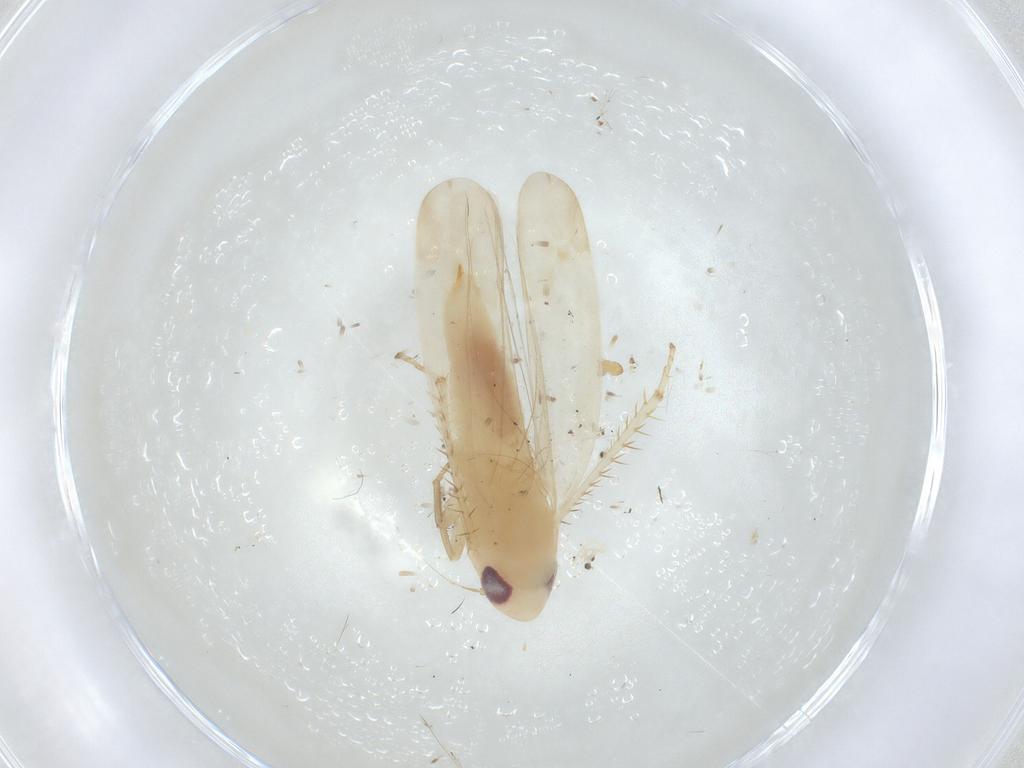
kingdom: Animalia
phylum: Arthropoda
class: Insecta
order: Hemiptera
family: Cicadellidae
